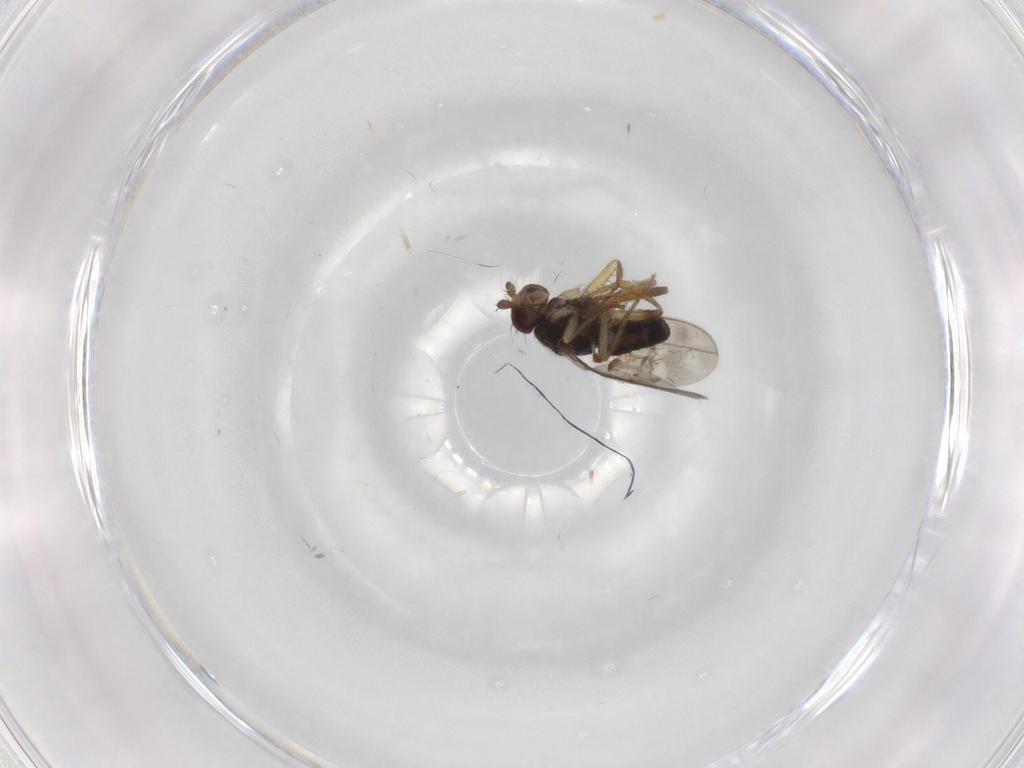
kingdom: Animalia
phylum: Arthropoda
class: Insecta
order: Diptera
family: Sphaeroceridae
